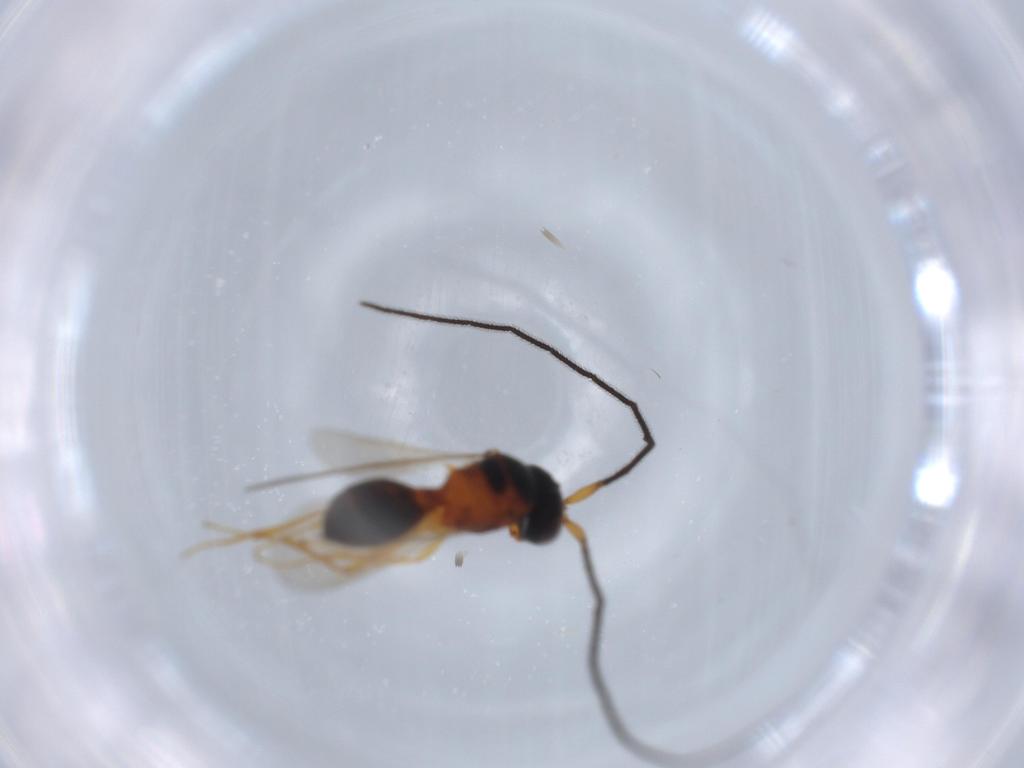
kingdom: Animalia
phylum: Arthropoda
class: Insecta
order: Hymenoptera
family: Scelionidae
